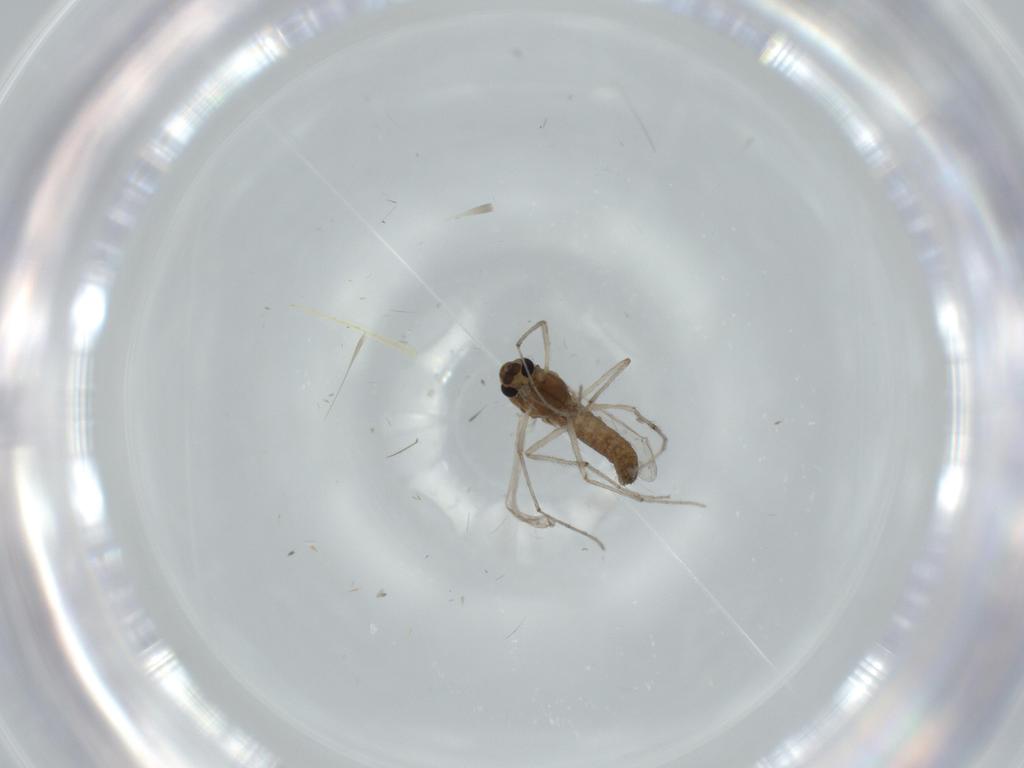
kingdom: Animalia
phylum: Arthropoda
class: Insecta
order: Diptera
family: Chironomidae
